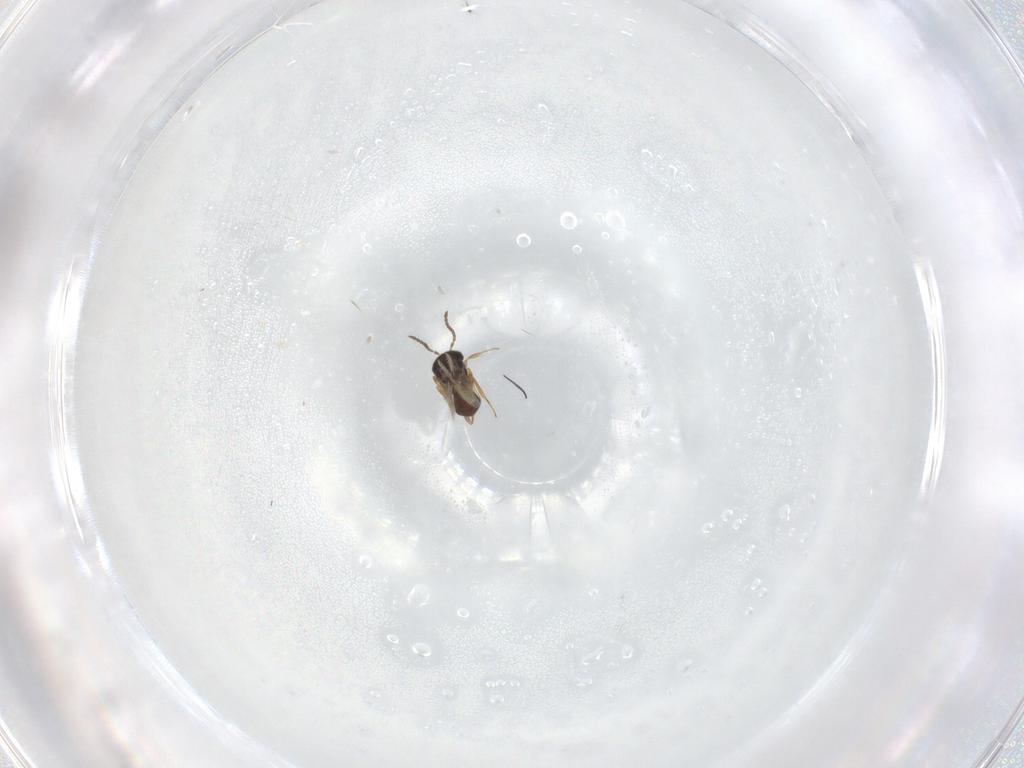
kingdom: Animalia
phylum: Arthropoda
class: Insecta
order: Hymenoptera
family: Scelionidae
